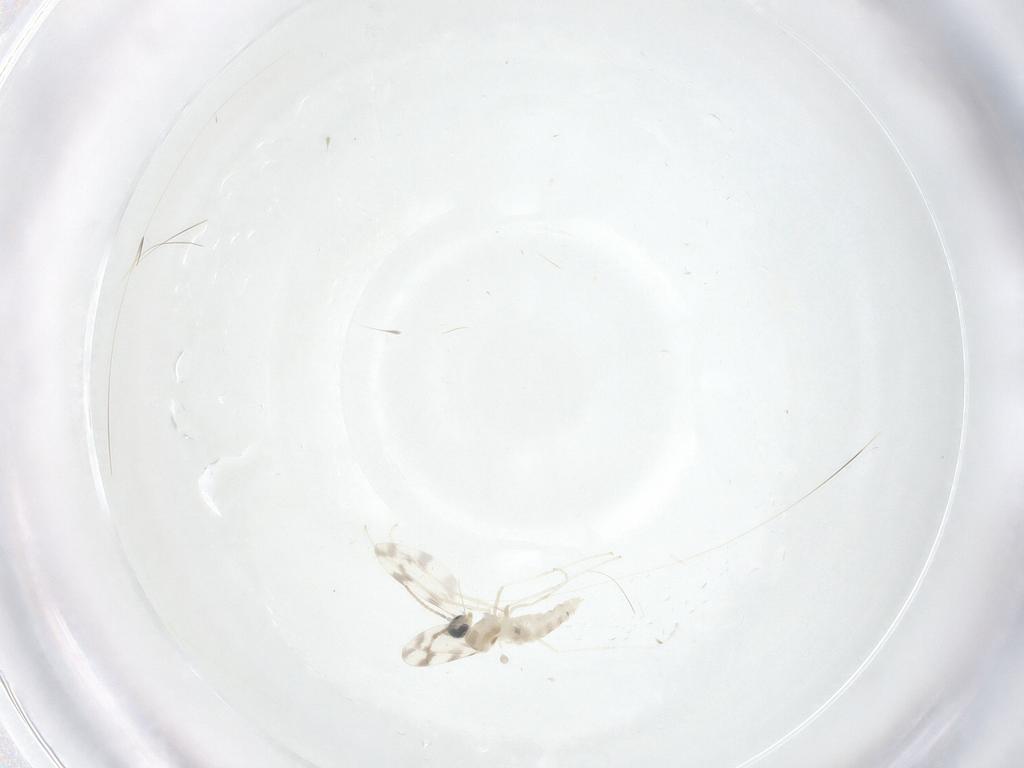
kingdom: Animalia
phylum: Arthropoda
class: Insecta
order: Diptera
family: Cecidomyiidae
